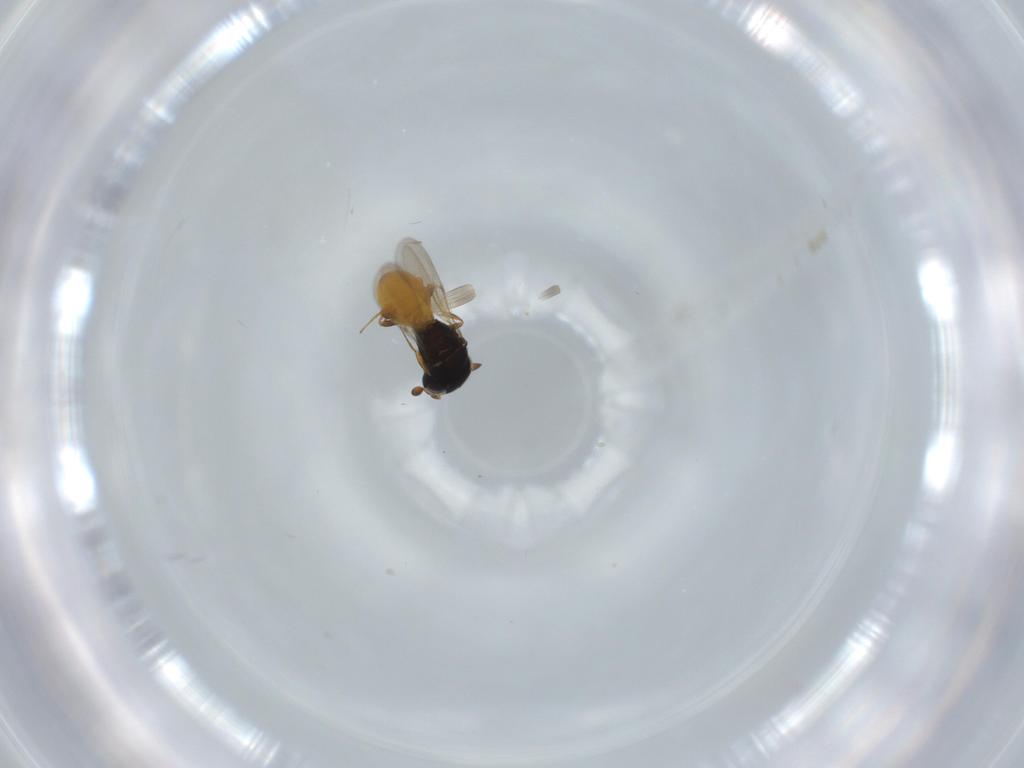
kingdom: Animalia
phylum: Arthropoda
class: Insecta
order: Hymenoptera
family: Scelionidae
